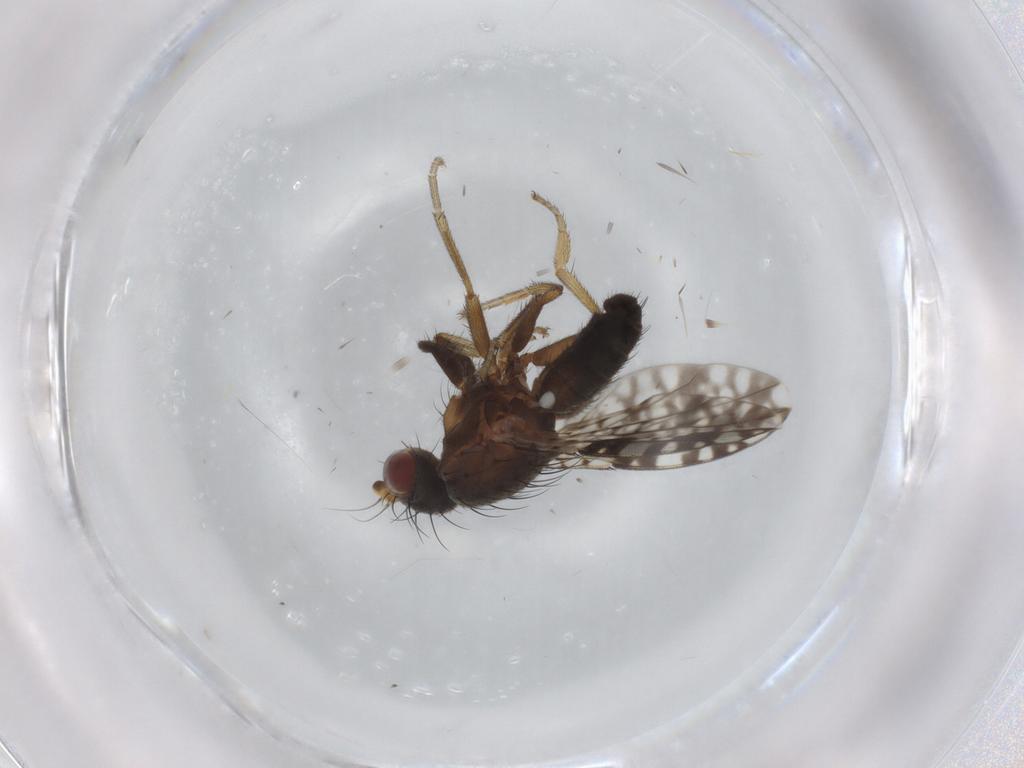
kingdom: Animalia
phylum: Arthropoda
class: Insecta
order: Diptera
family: Tephritidae
